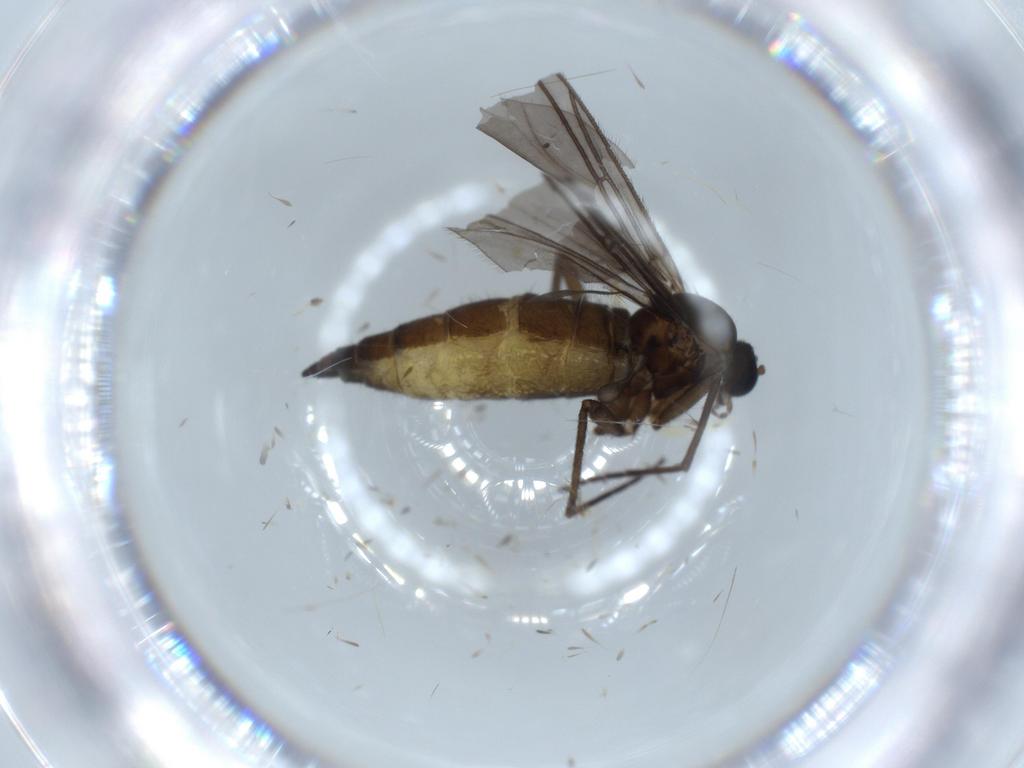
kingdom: Animalia
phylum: Arthropoda
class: Insecta
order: Diptera
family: Sciaridae
